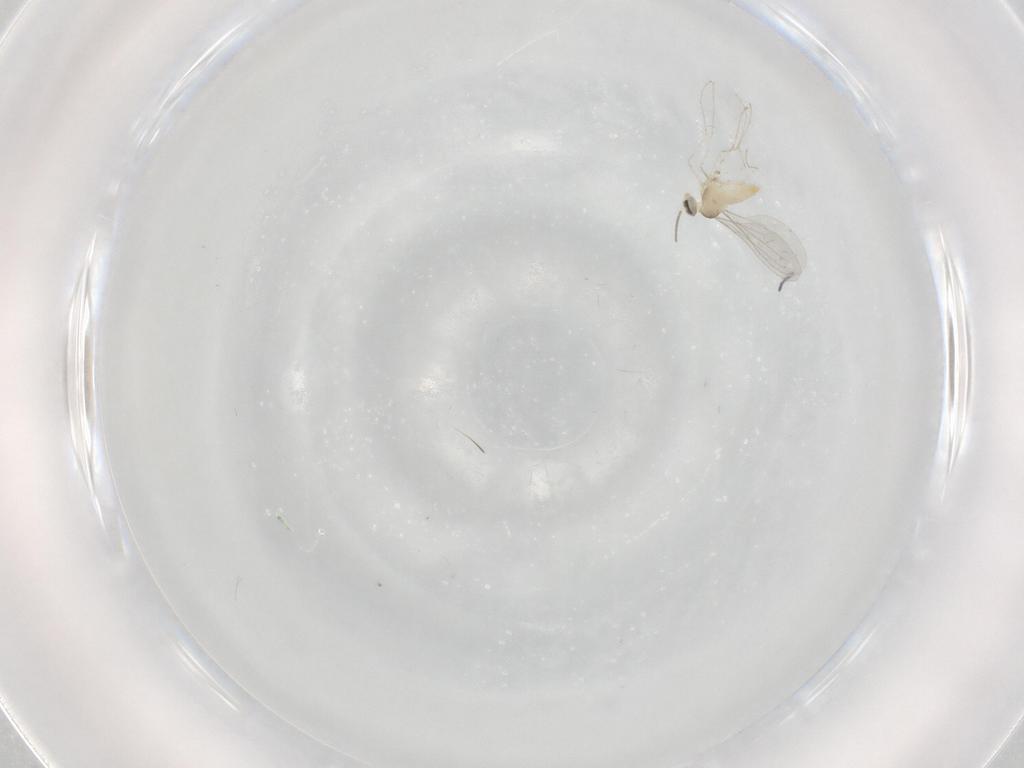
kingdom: Animalia
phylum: Arthropoda
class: Insecta
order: Diptera
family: Cecidomyiidae
